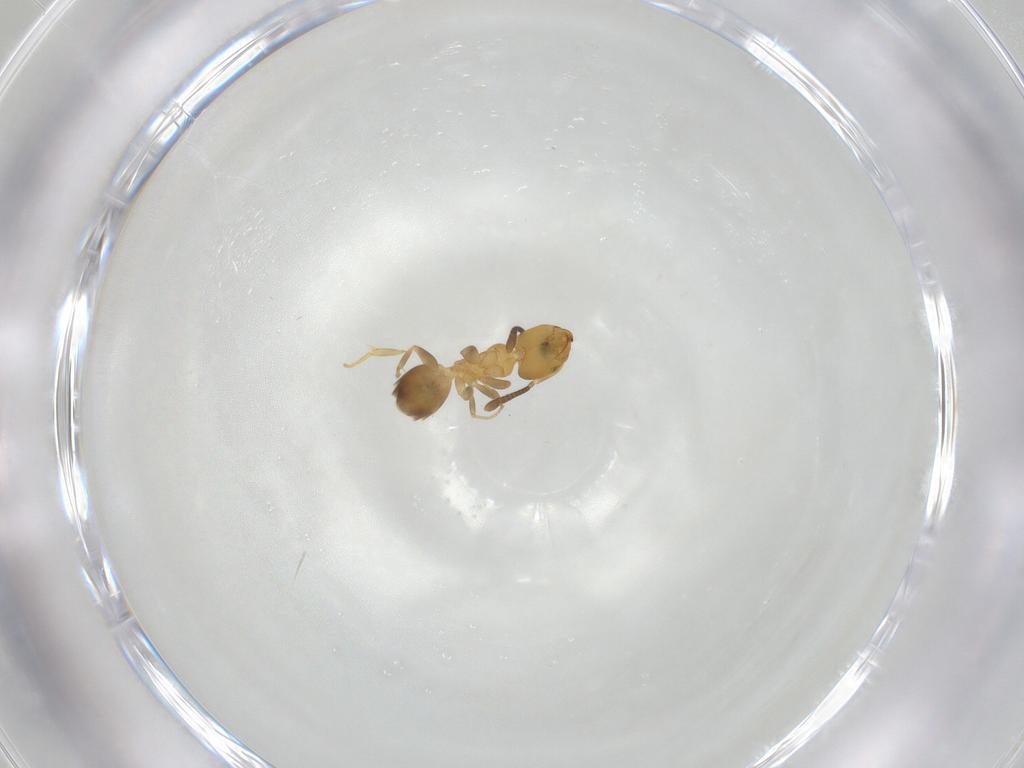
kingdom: Animalia
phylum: Arthropoda
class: Insecta
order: Hymenoptera
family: Formicidae
